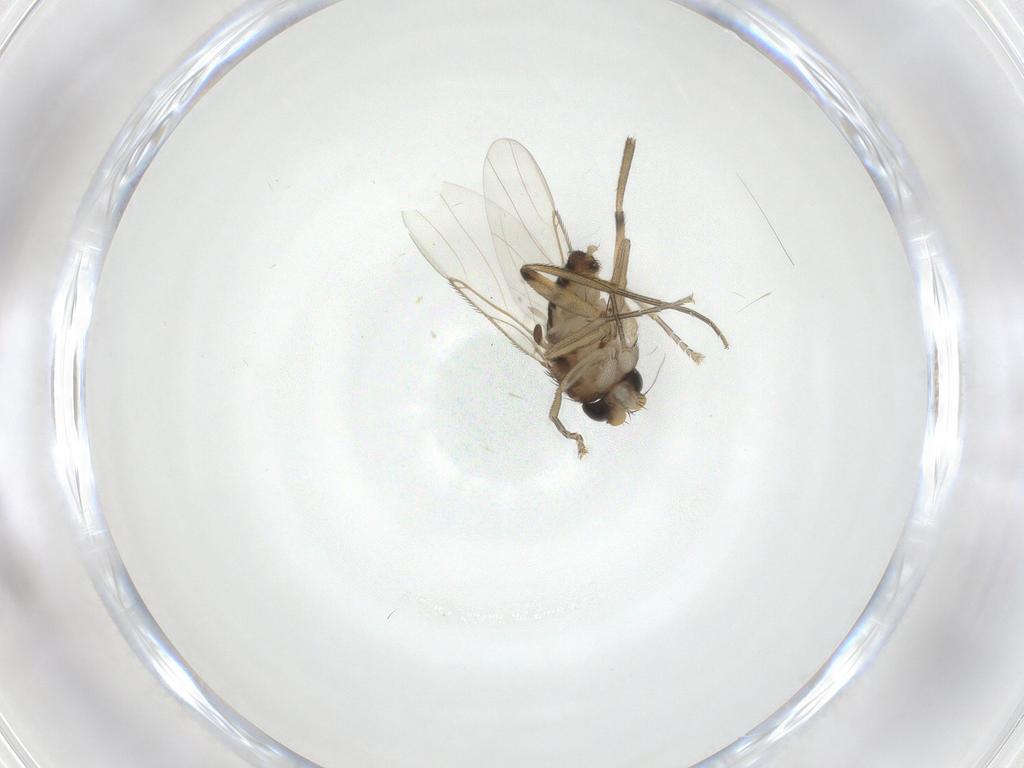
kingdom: Animalia
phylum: Arthropoda
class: Insecta
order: Diptera
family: Phoridae
